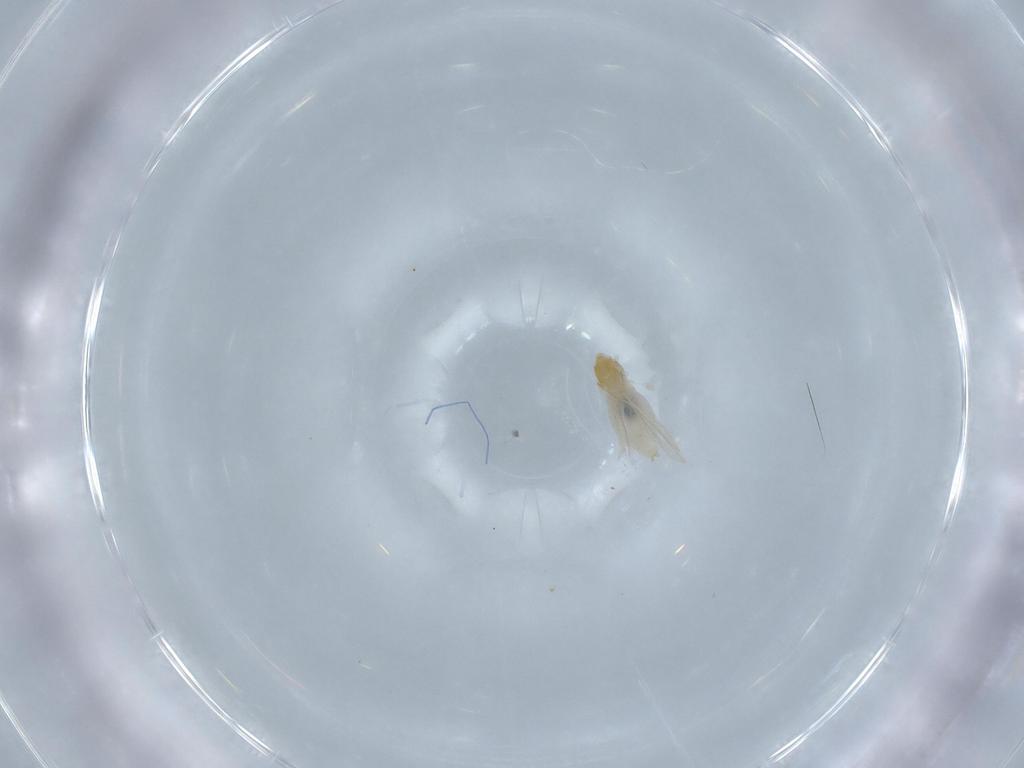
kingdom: Animalia
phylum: Arthropoda
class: Insecta
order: Diptera
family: Cecidomyiidae
